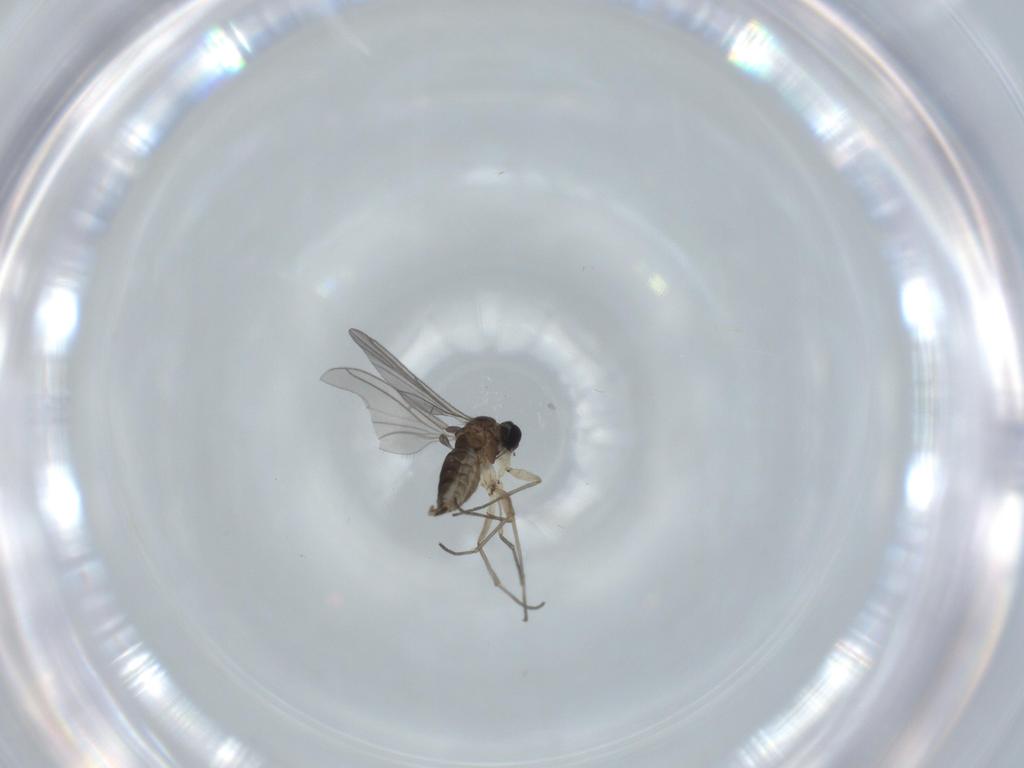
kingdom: Animalia
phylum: Arthropoda
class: Insecta
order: Diptera
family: Sciaridae
